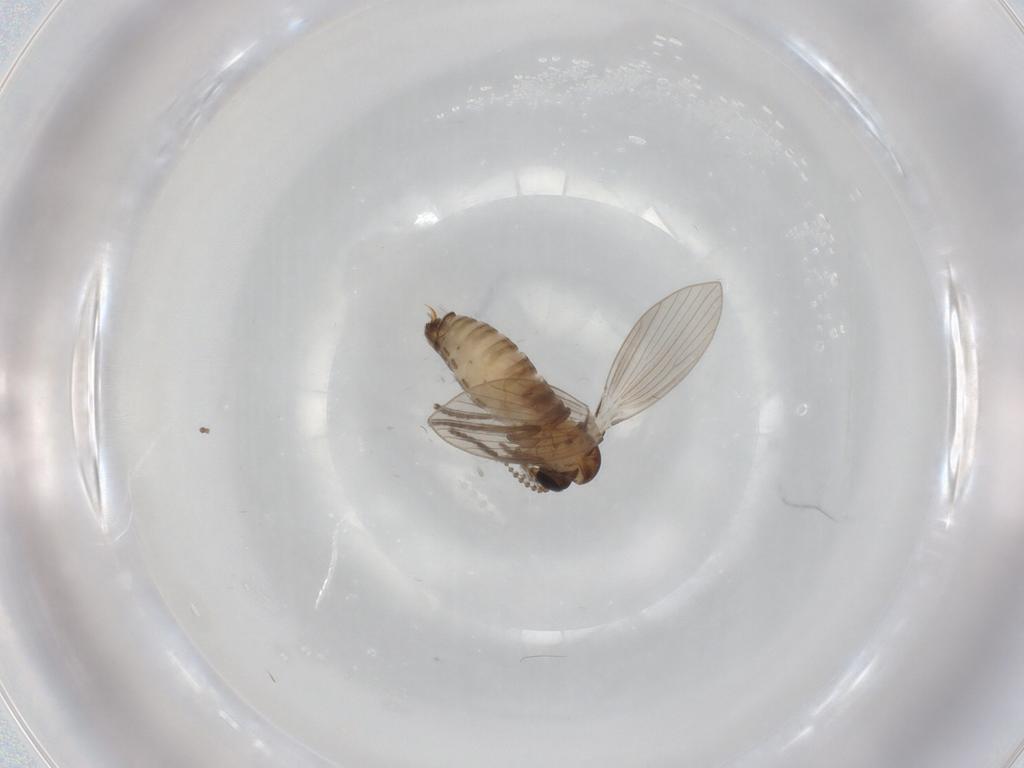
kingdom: Animalia
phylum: Arthropoda
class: Insecta
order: Diptera
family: Psychodidae
